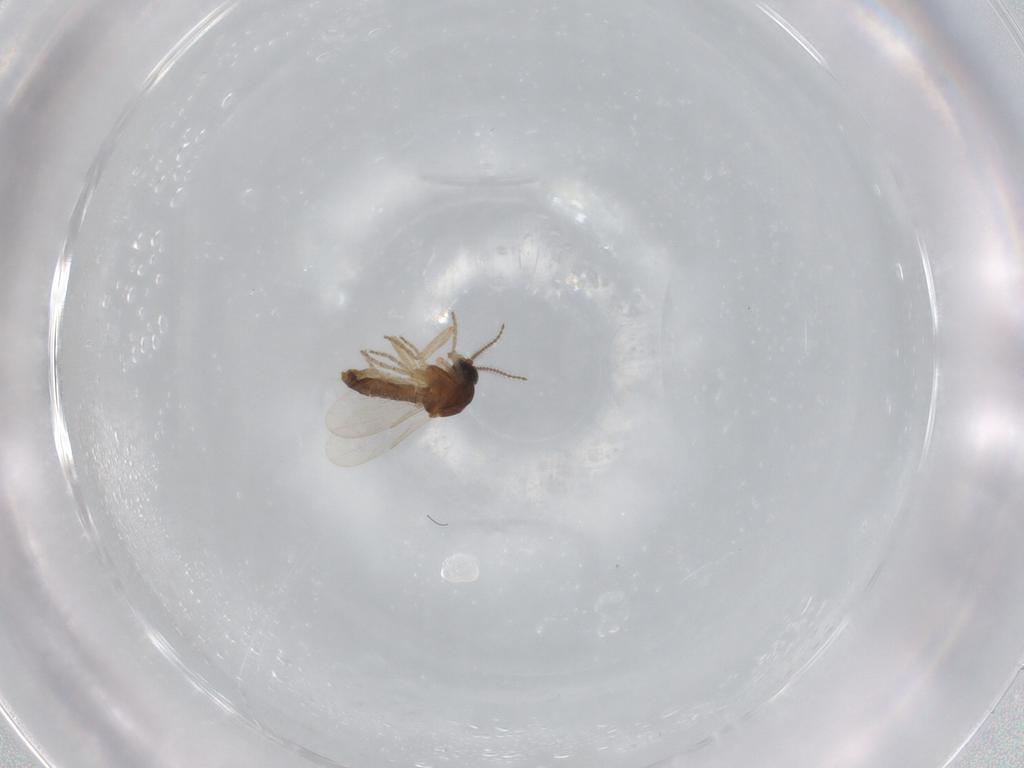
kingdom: Animalia
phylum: Arthropoda
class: Insecta
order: Diptera
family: Ceratopogonidae
